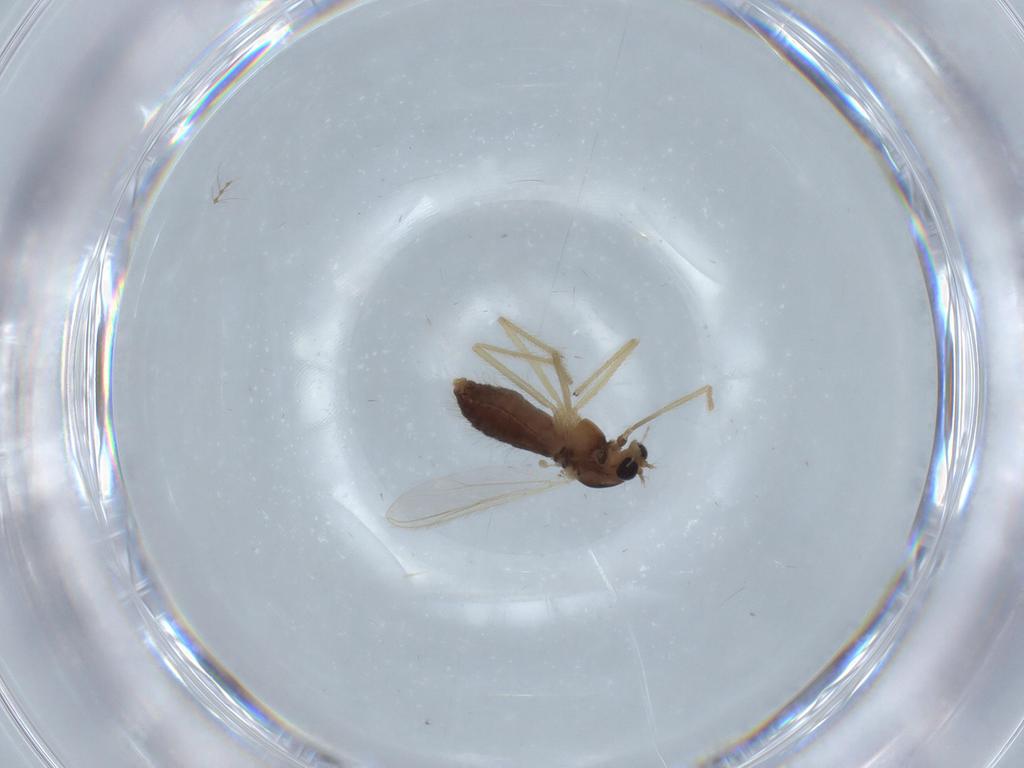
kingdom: Animalia
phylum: Arthropoda
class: Insecta
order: Diptera
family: Chironomidae
